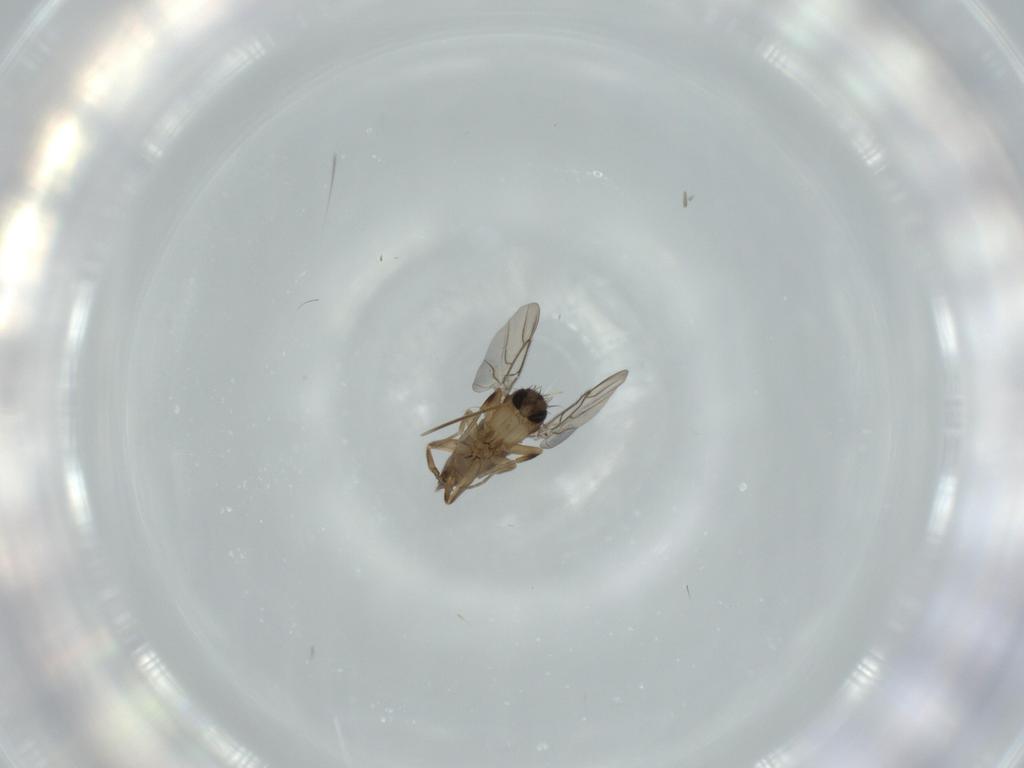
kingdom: Animalia
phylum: Arthropoda
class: Insecta
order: Diptera
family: Phoridae
